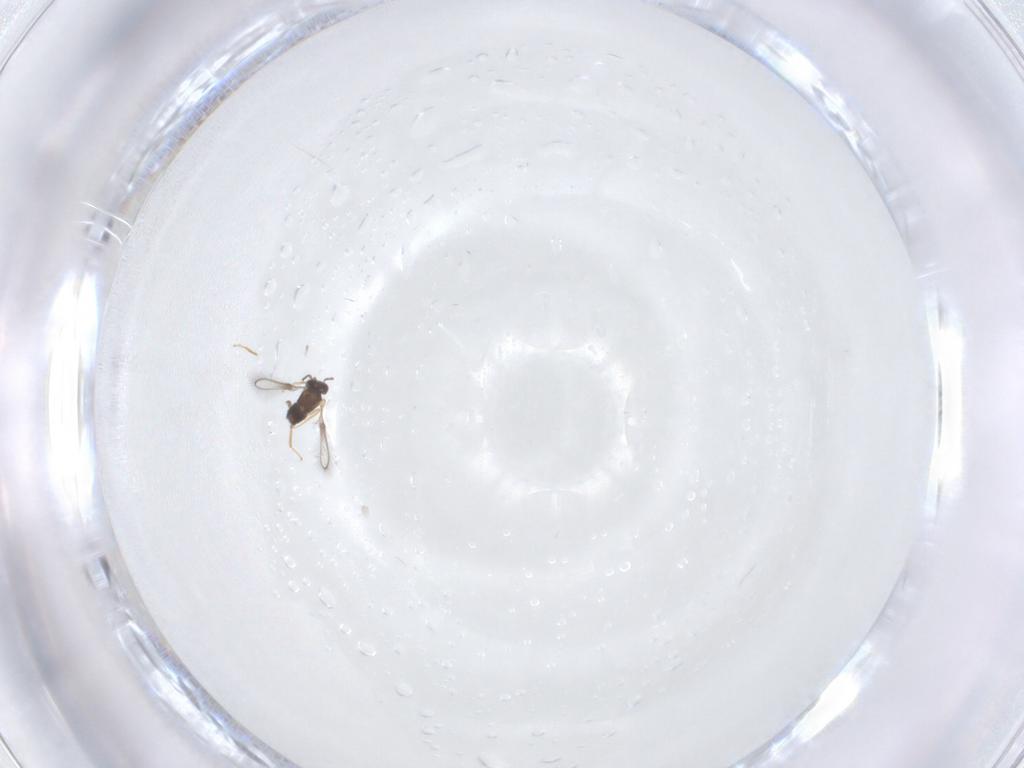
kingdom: Animalia
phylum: Arthropoda
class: Insecta
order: Hymenoptera
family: Mymaridae
